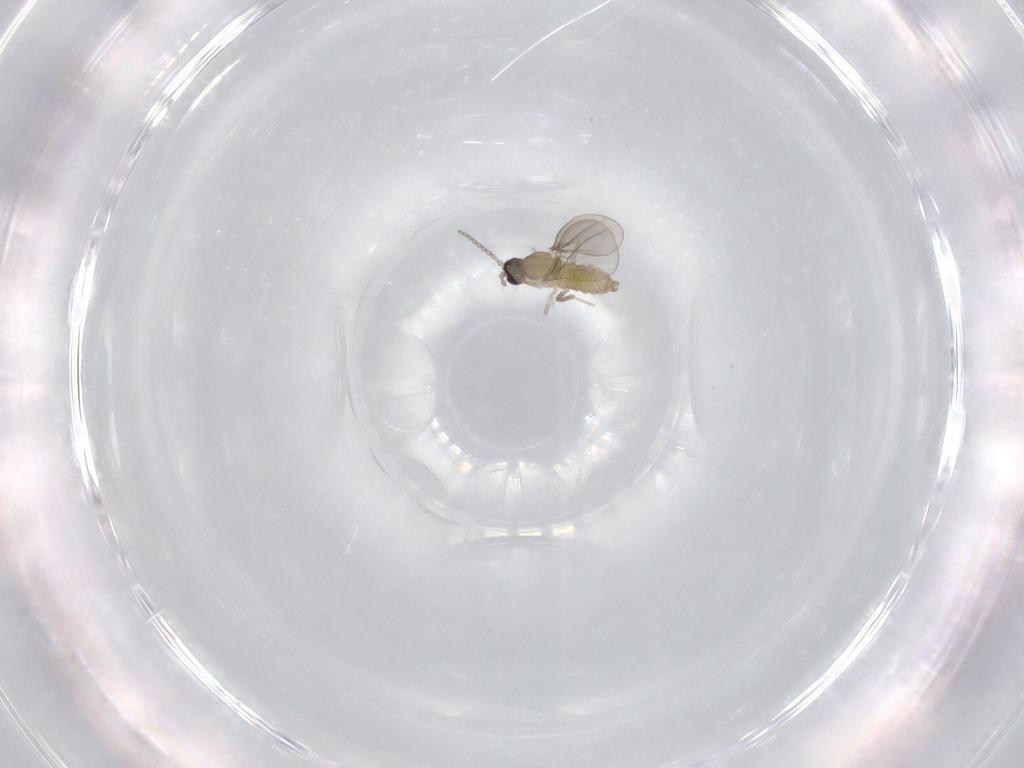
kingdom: Animalia
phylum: Arthropoda
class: Insecta
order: Diptera
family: Cecidomyiidae
